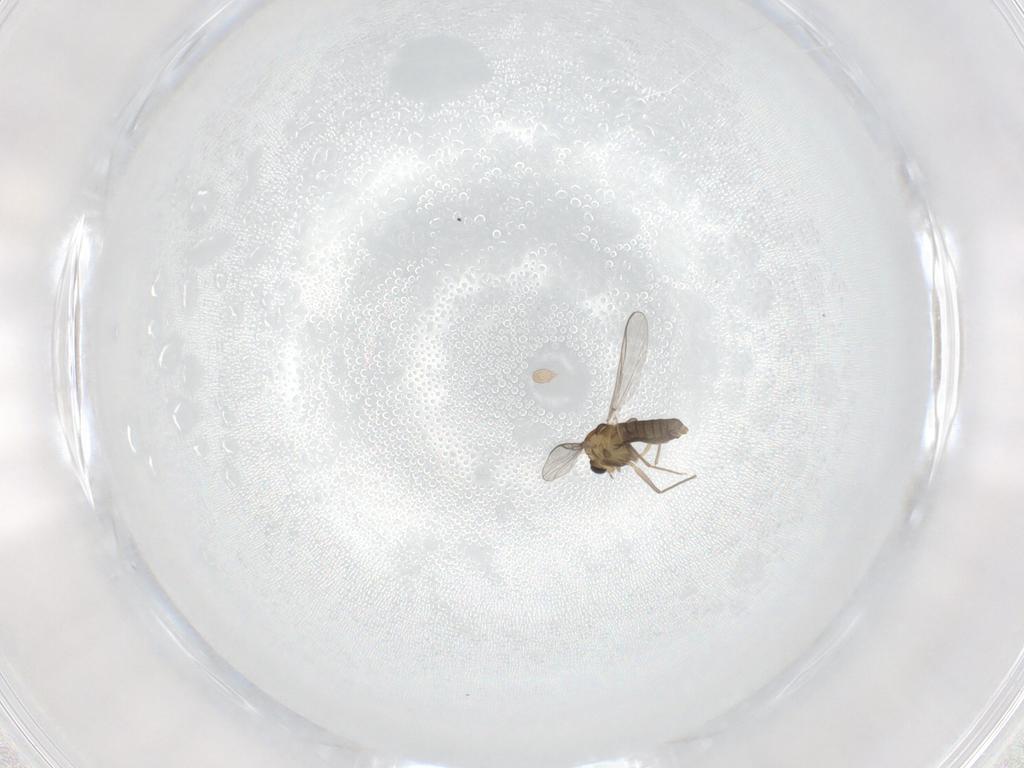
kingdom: Animalia
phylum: Arthropoda
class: Insecta
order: Diptera
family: Chironomidae
